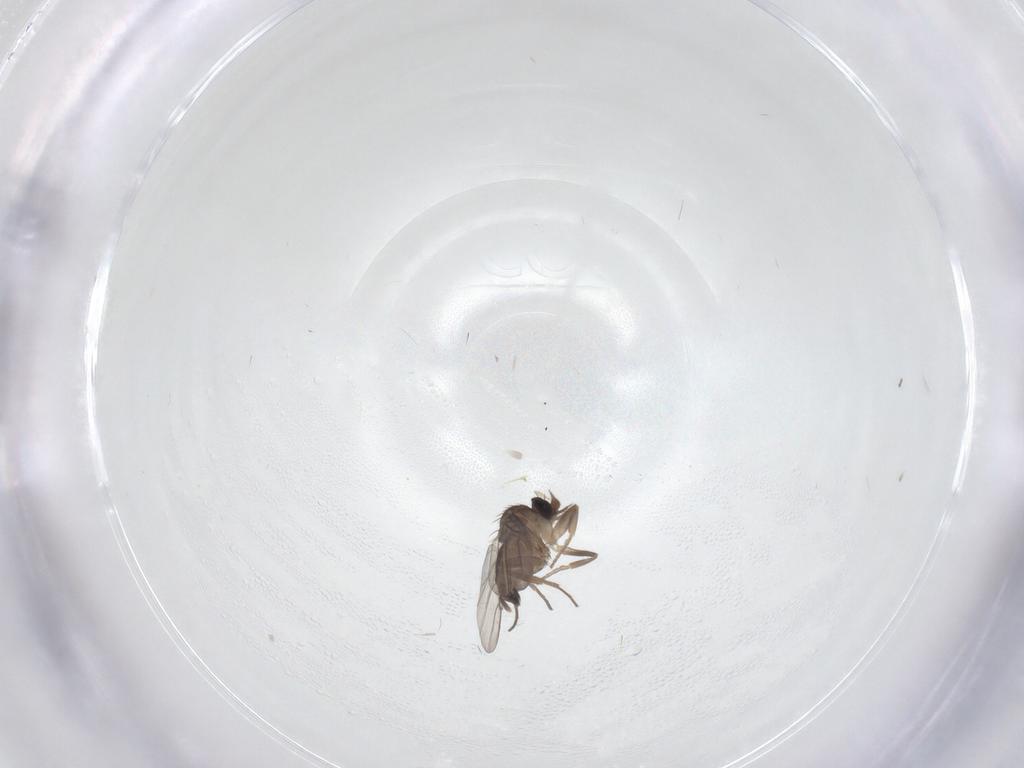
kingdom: Animalia
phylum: Arthropoda
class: Insecta
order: Diptera
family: Phoridae
